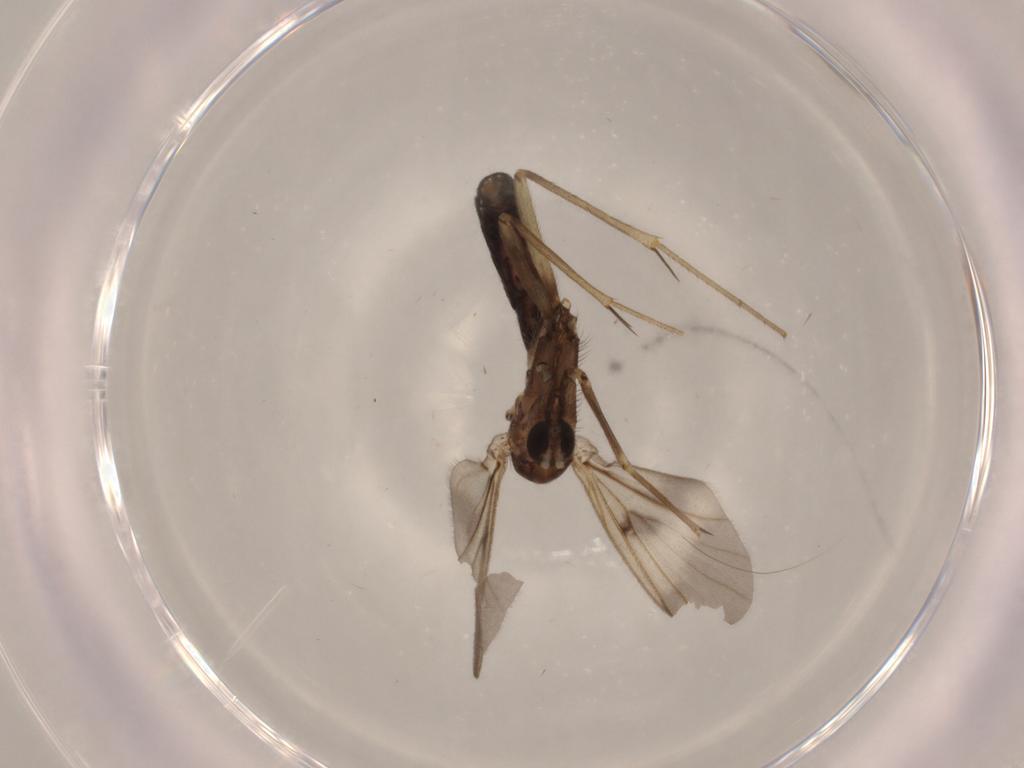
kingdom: Animalia
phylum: Arthropoda
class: Insecta
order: Diptera
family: Mycetophilidae
